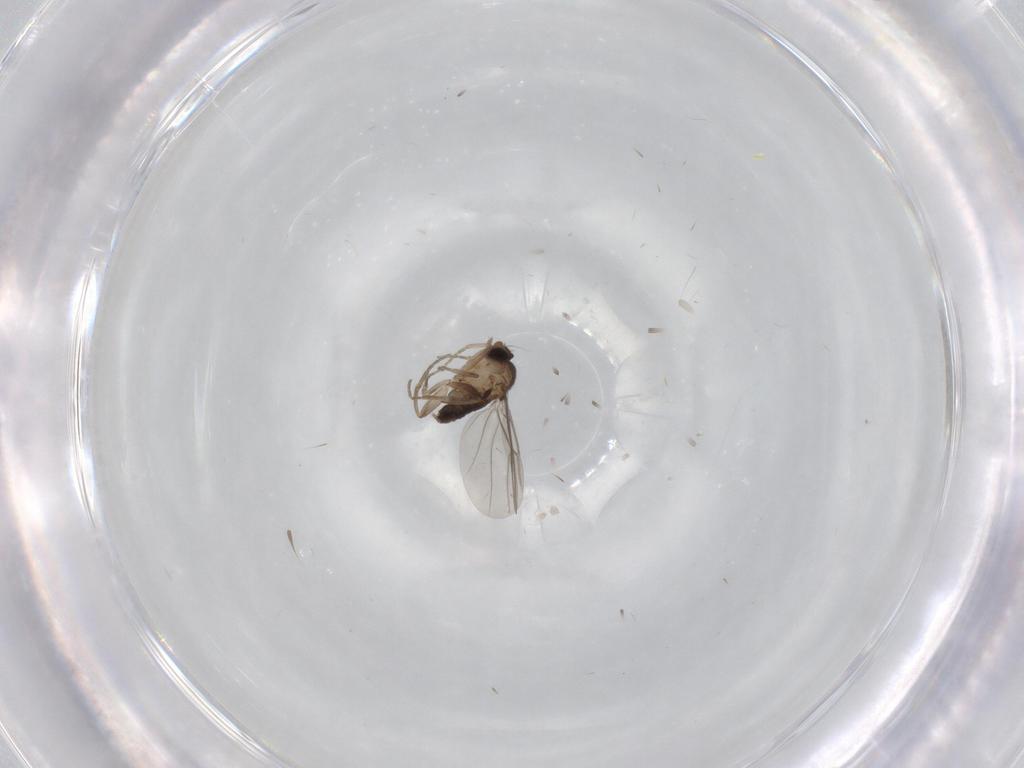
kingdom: Animalia
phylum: Arthropoda
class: Insecta
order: Diptera
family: Phoridae
